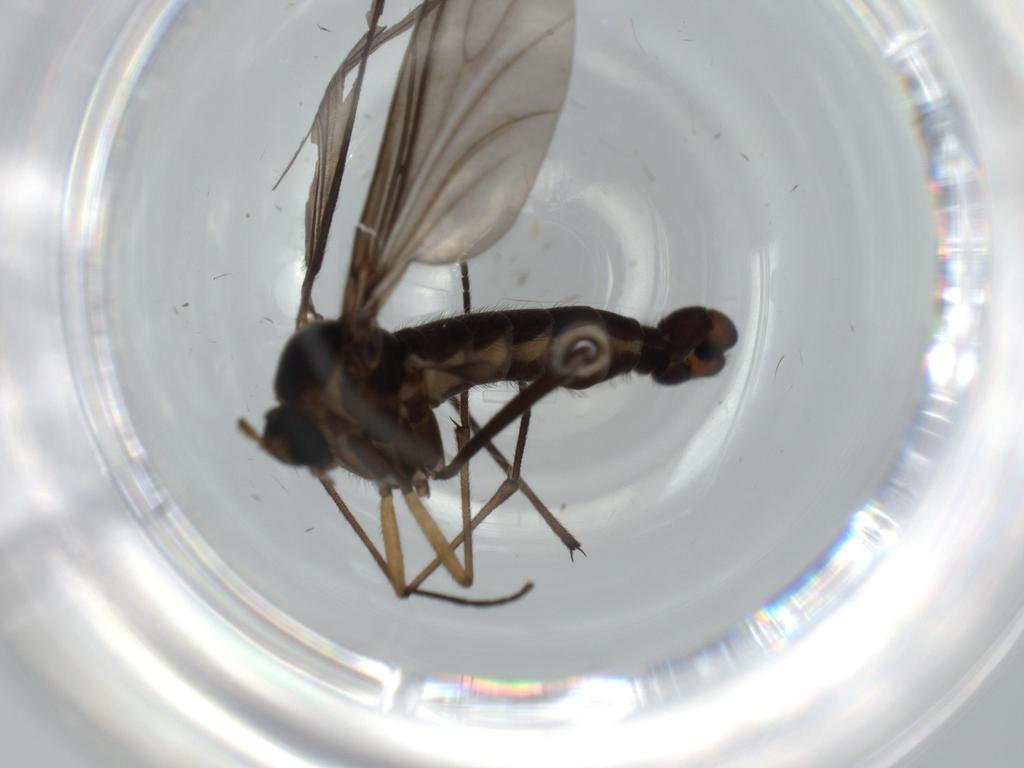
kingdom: Animalia
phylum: Arthropoda
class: Insecta
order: Diptera
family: Sciaridae
